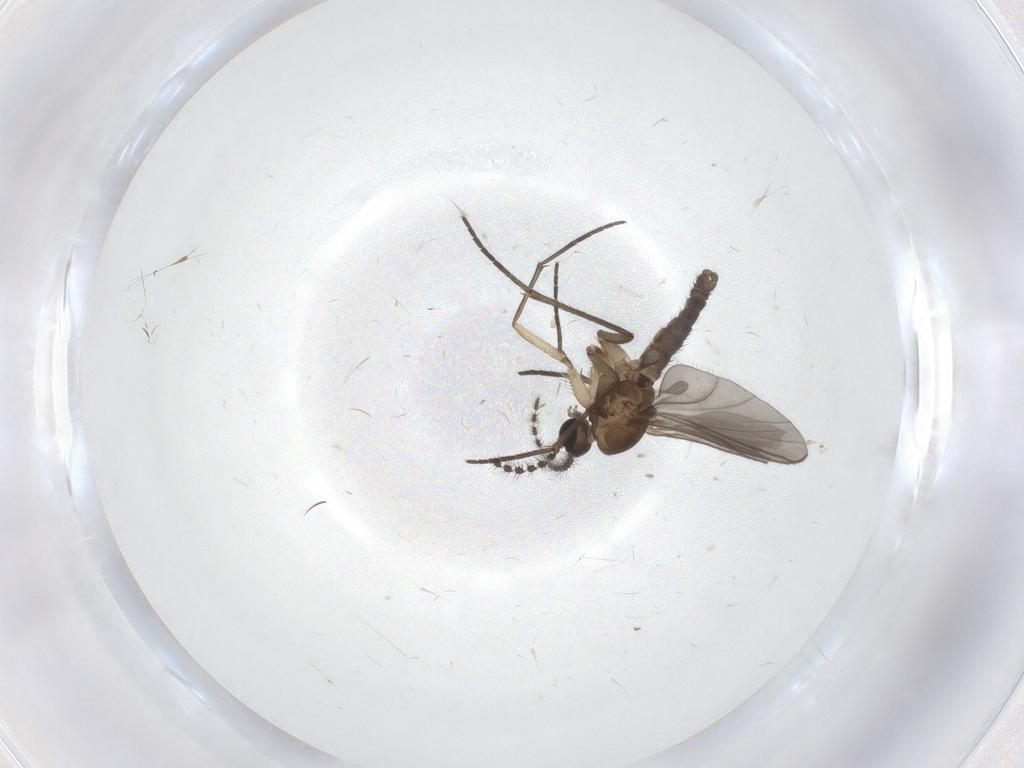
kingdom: Animalia
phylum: Arthropoda
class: Insecta
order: Diptera
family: Sciaridae
